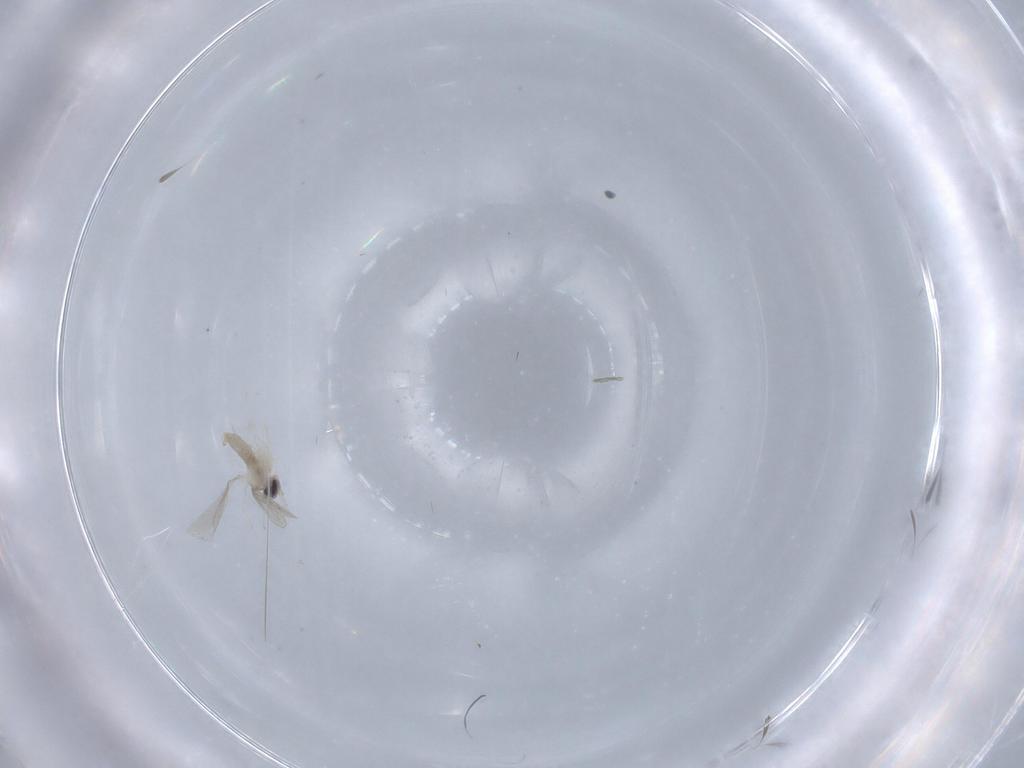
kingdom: Animalia
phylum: Arthropoda
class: Insecta
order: Diptera
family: Cecidomyiidae
